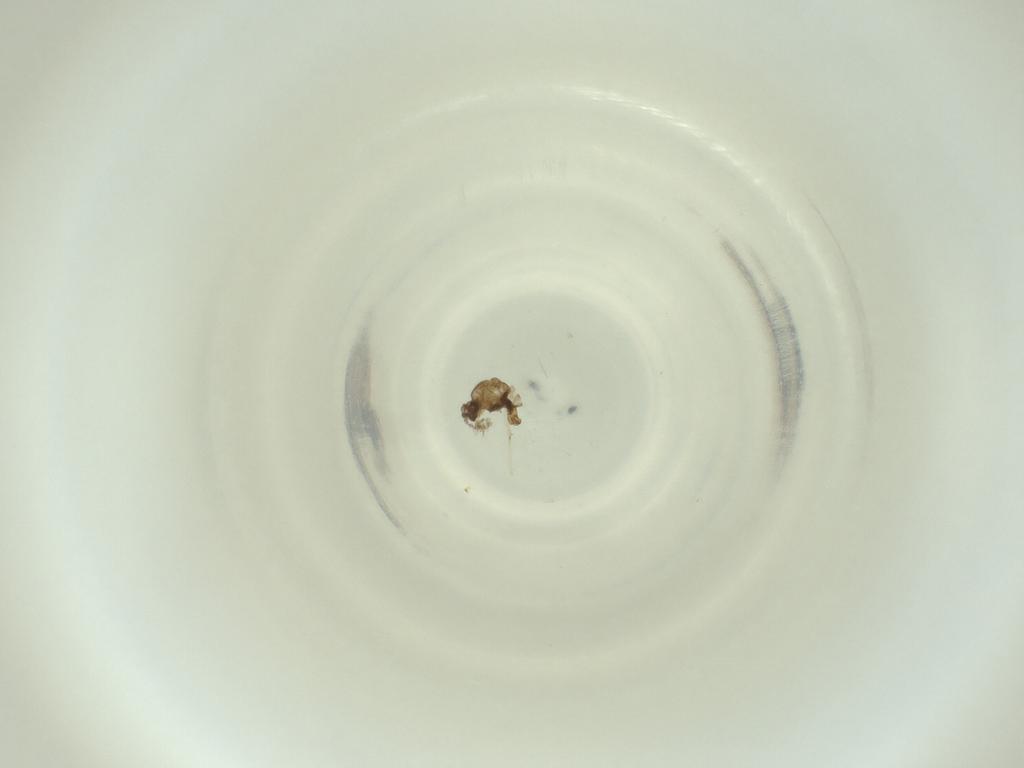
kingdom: Animalia
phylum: Arthropoda
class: Insecta
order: Diptera
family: Cecidomyiidae
